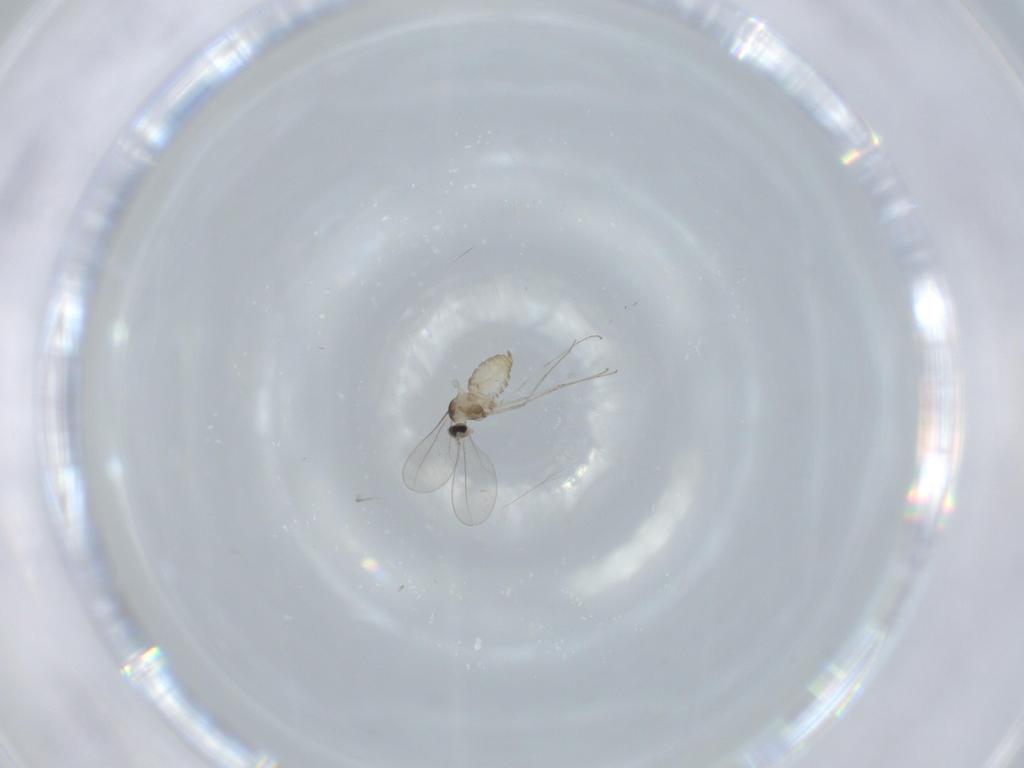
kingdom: Animalia
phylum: Arthropoda
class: Insecta
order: Diptera
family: Cecidomyiidae
